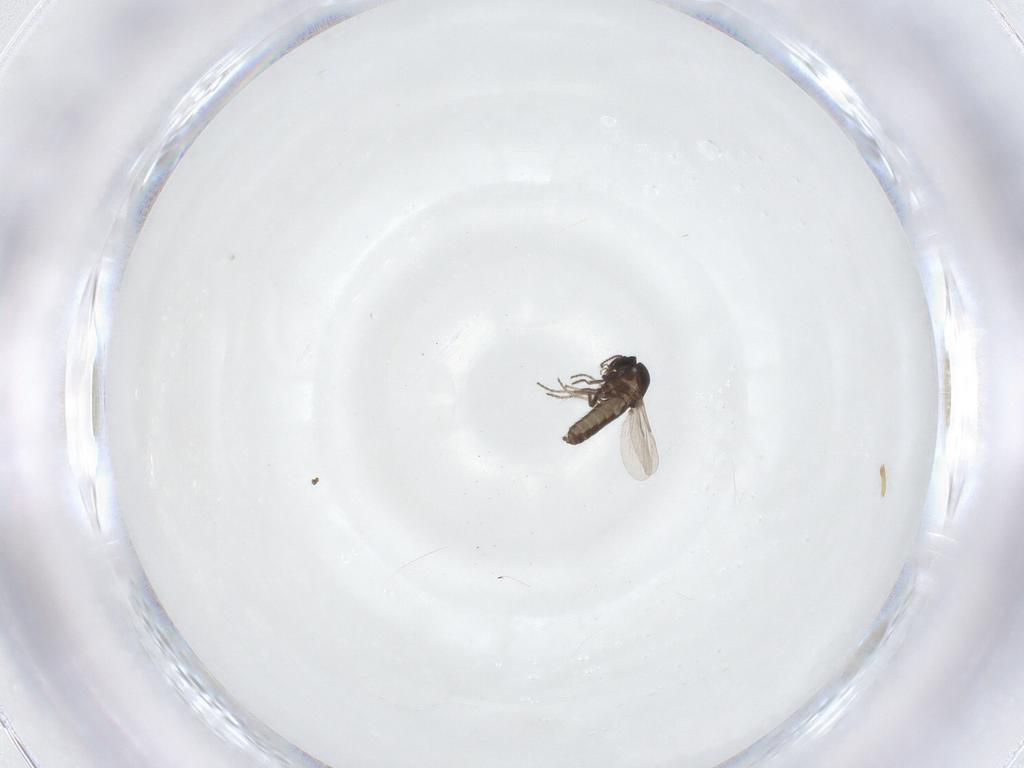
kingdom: Animalia
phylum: Arthropoda
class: Insecta
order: Diptera
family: Ceratopogonidae
